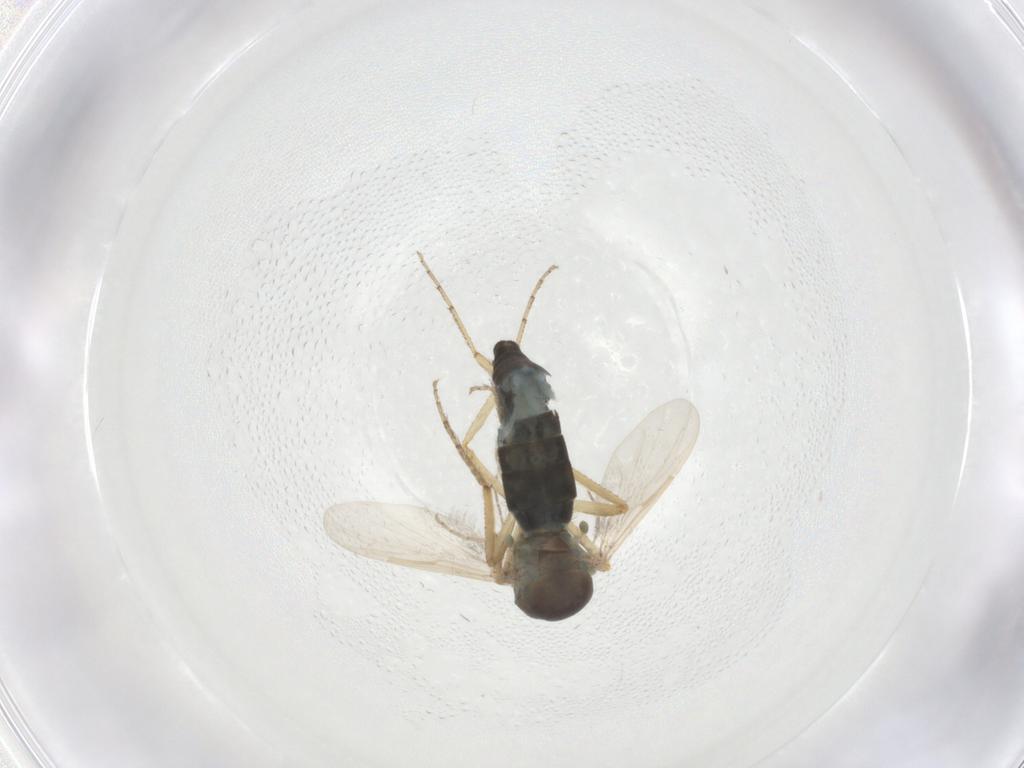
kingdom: Animalia
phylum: Arthropoda
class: Insecta
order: Diptera
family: Ceratopogonidae
